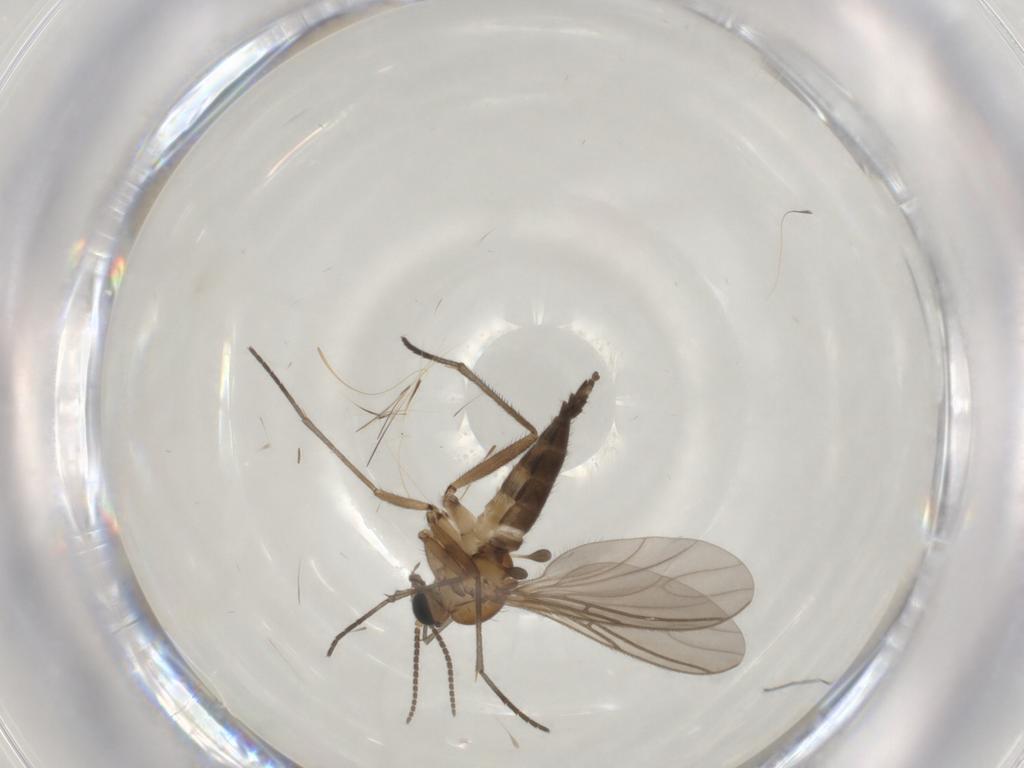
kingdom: Animalia
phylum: Arthropoda
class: Insecta
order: Diptera
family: Sciaridae
